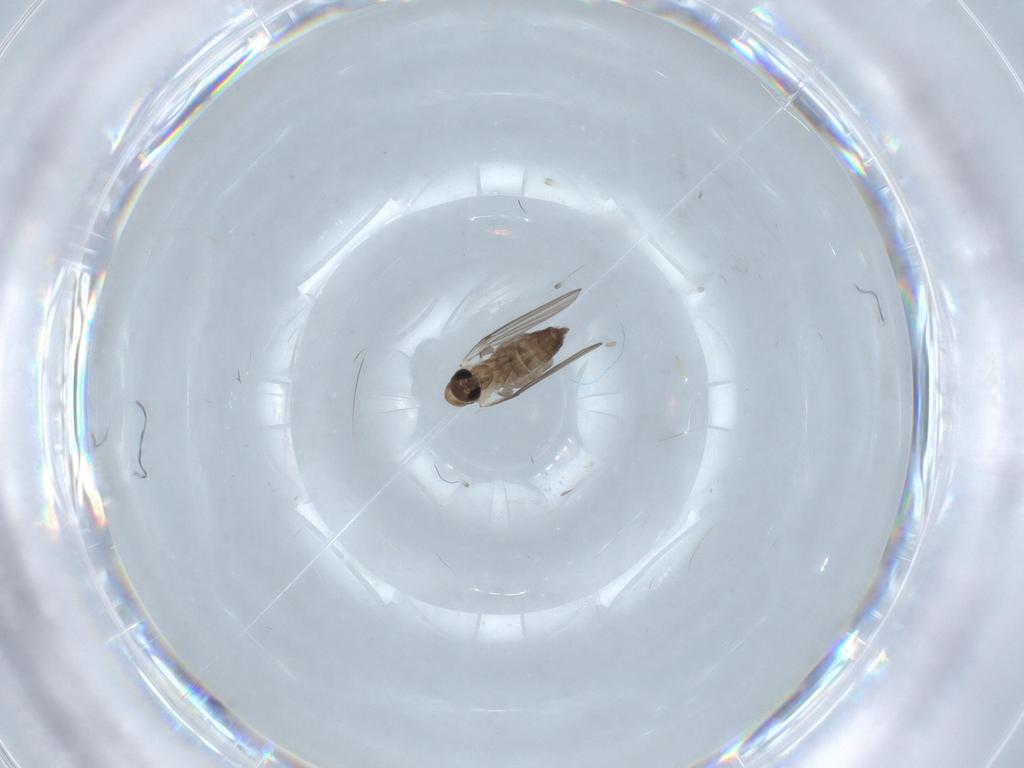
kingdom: Animalia
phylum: Arthropoda
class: Insecta
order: Diptera
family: Psychodidae
